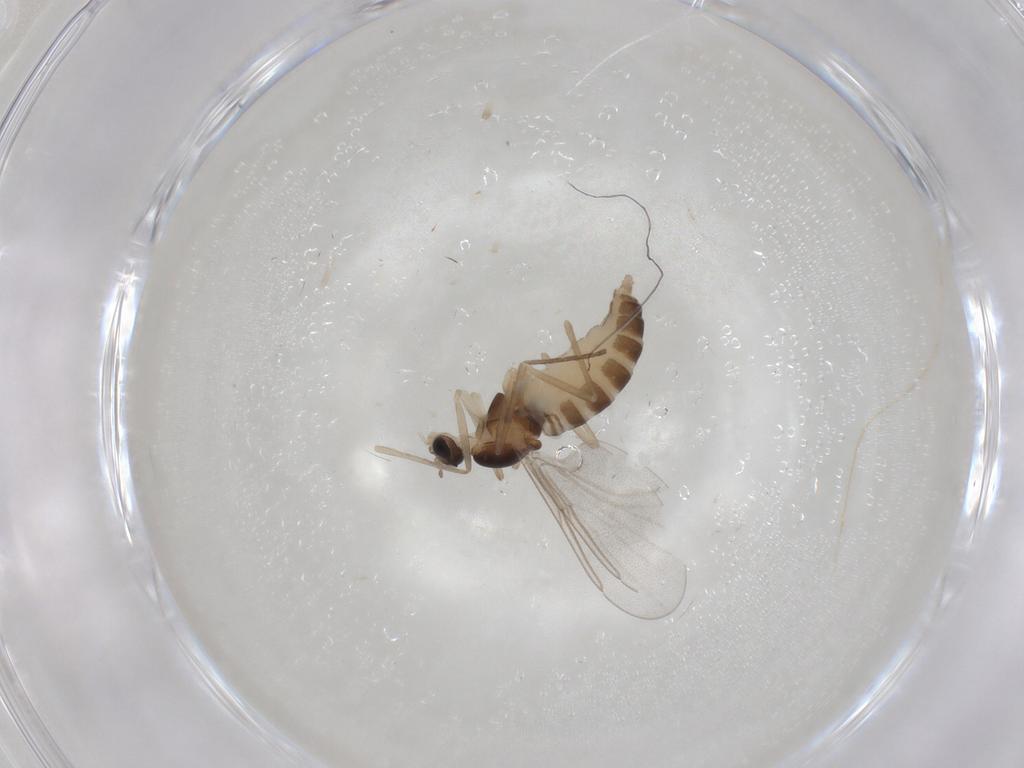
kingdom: Animalia
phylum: Arthropoda
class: Insecta
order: Diptera
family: Cecidomyiidae
